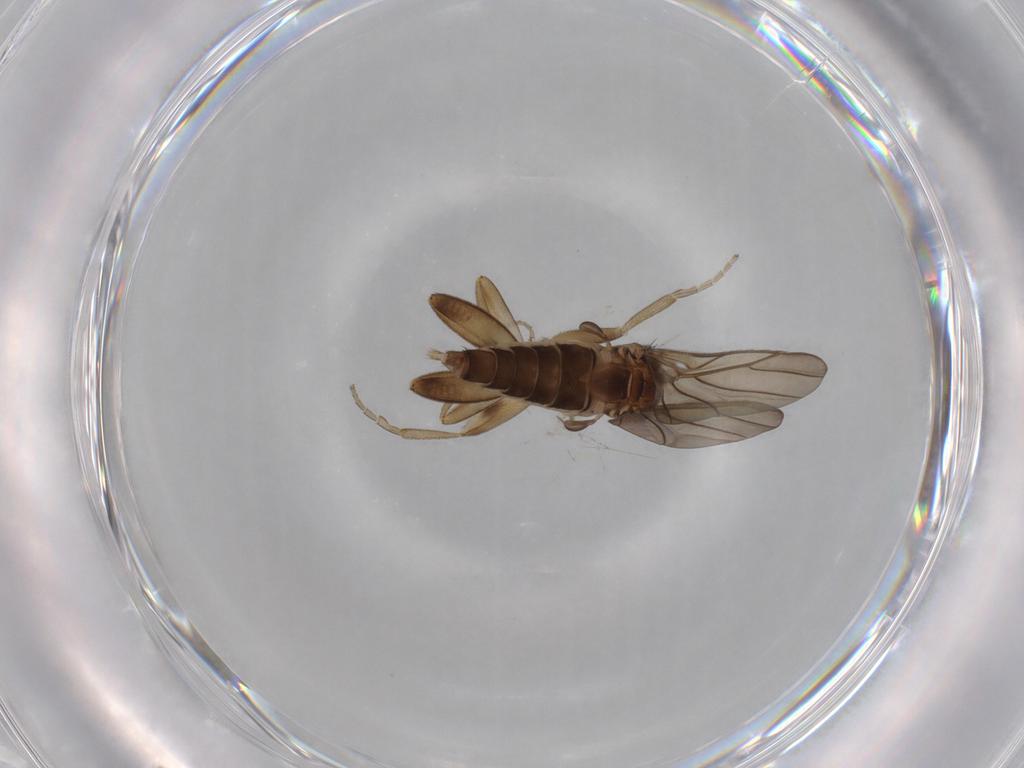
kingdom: Animalia
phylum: Arthropoda
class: Insecta
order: Diptera
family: Phoridae
